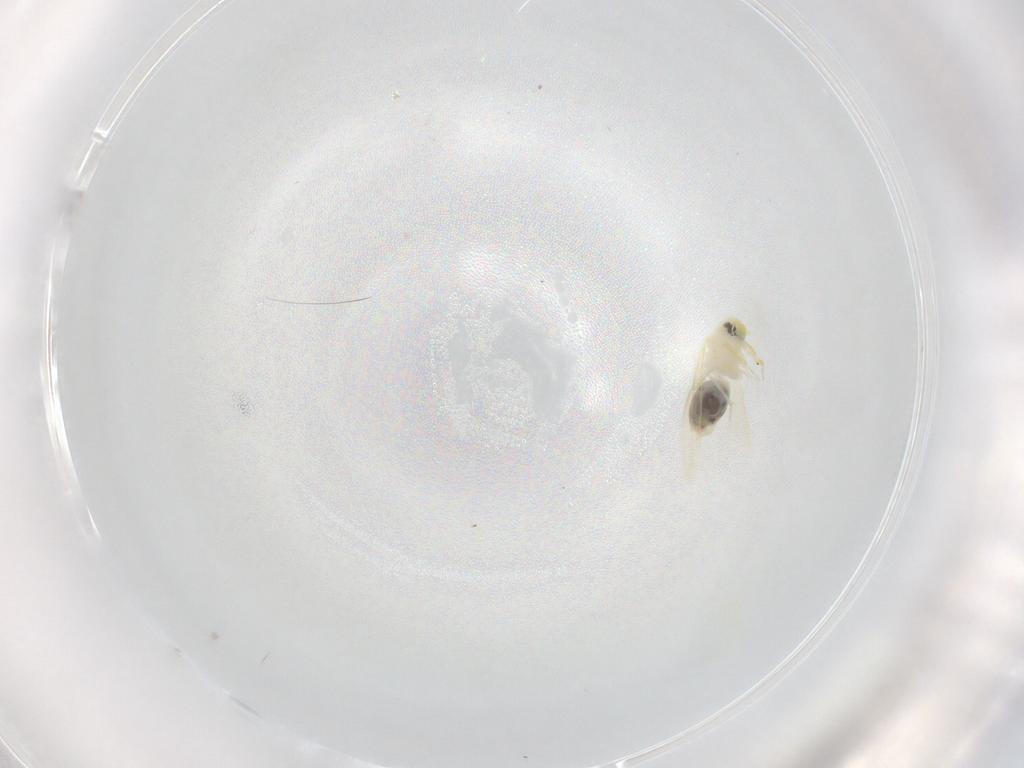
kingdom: Animalia
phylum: Arthropoda
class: Insecta
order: Hemiptera
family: Aleyrodidae
